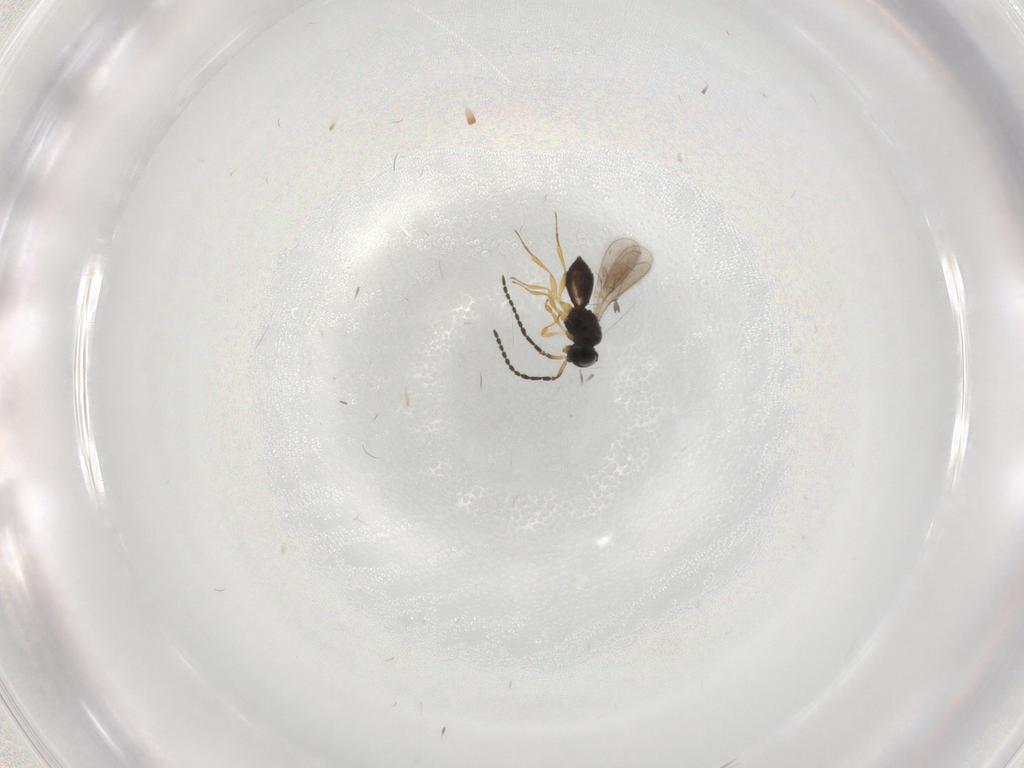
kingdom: Animalia
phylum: Arthropoda
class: Insecta
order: Hymenoptera
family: Scelionidae
